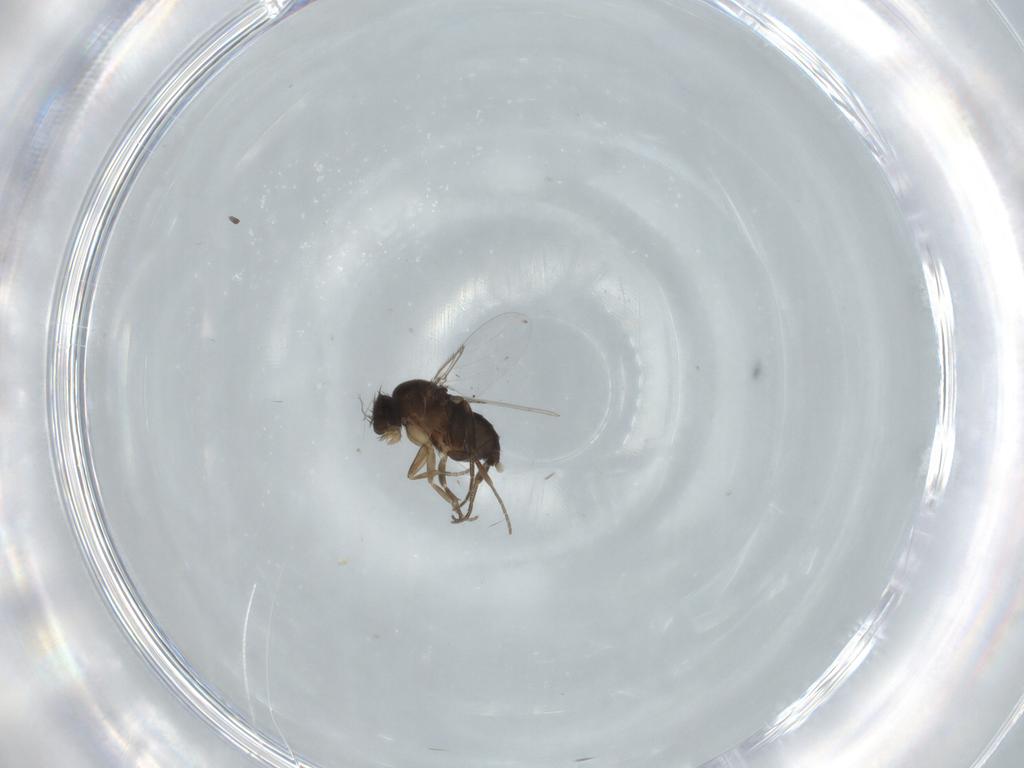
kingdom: Animalia
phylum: Arthropoda
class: Insecta
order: Diptera
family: Phoridae
